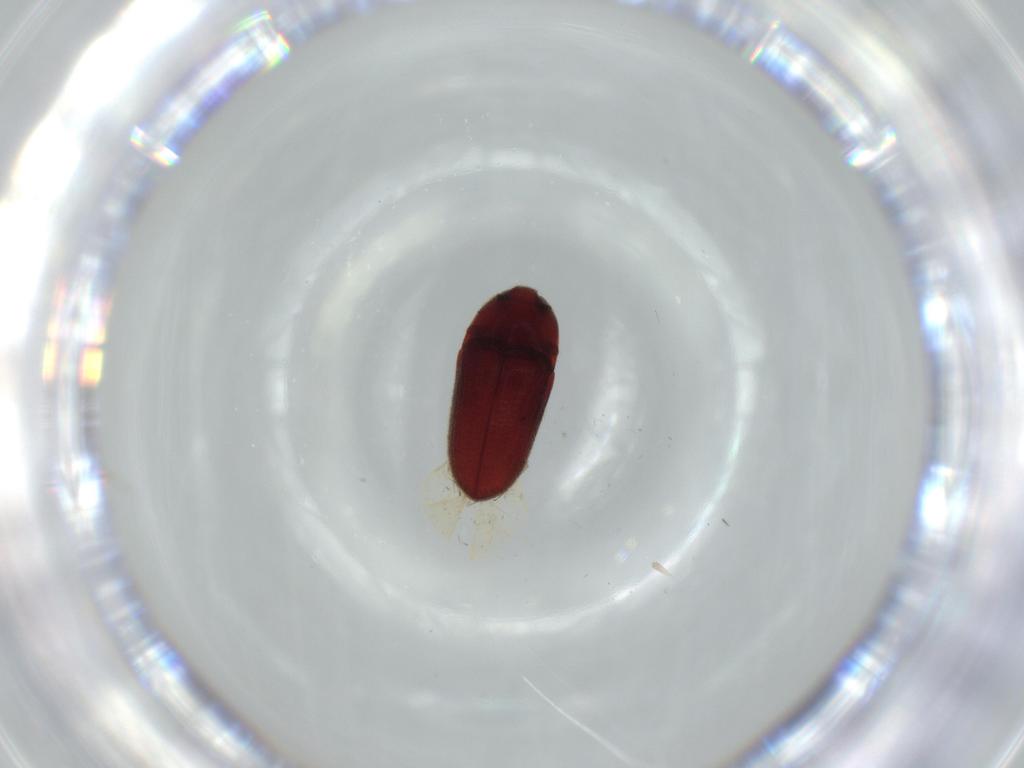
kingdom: Animalia
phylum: Arthropoda
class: Insecta
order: Coleoptera
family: Throscidae
